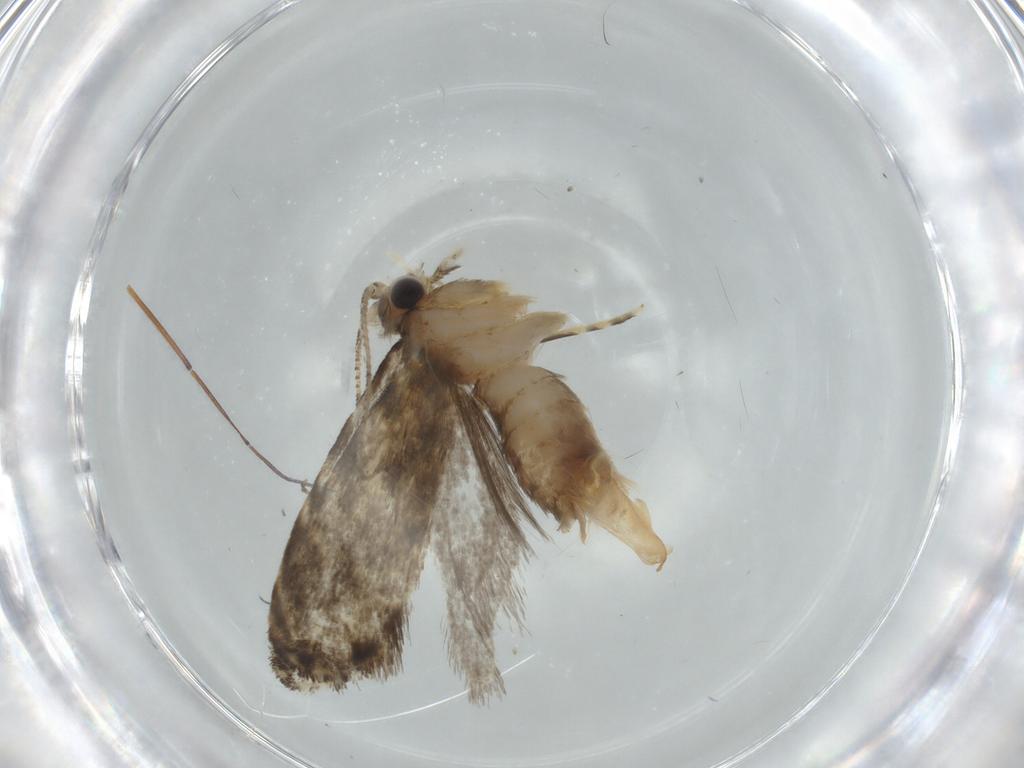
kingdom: Animalia
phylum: Arthropoda
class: Insecta
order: Lepidoptera
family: Tineidae
